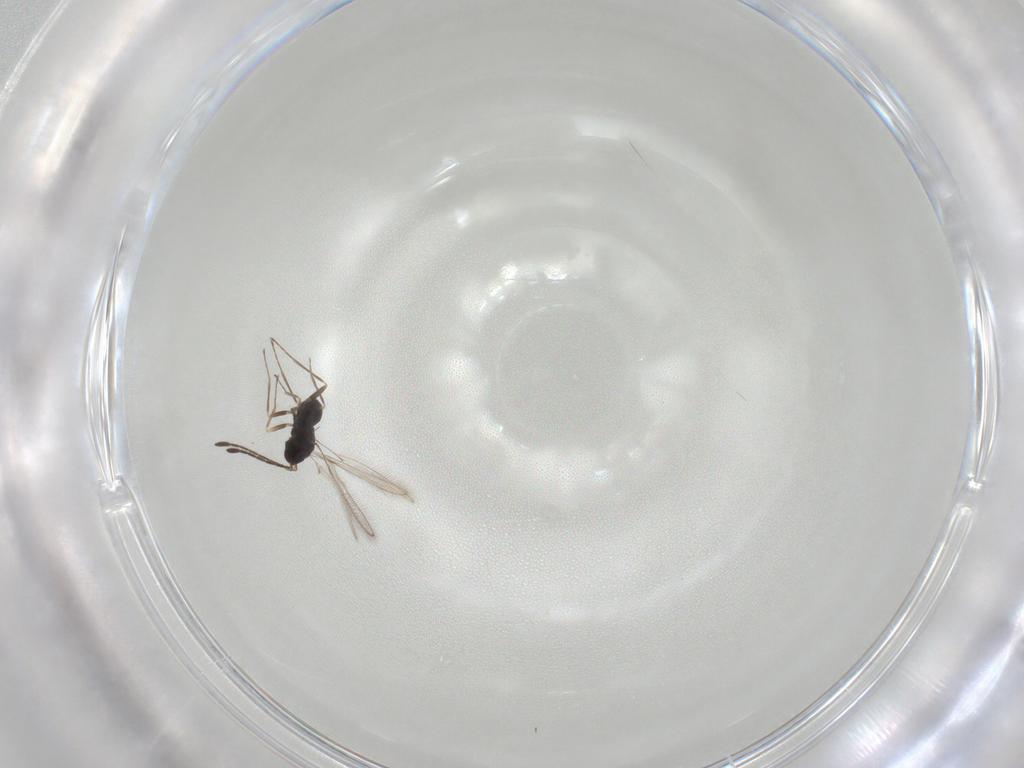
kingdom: Animalia
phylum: Arthropoda
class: Insecta
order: Hymenoptera
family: Mymaridae
